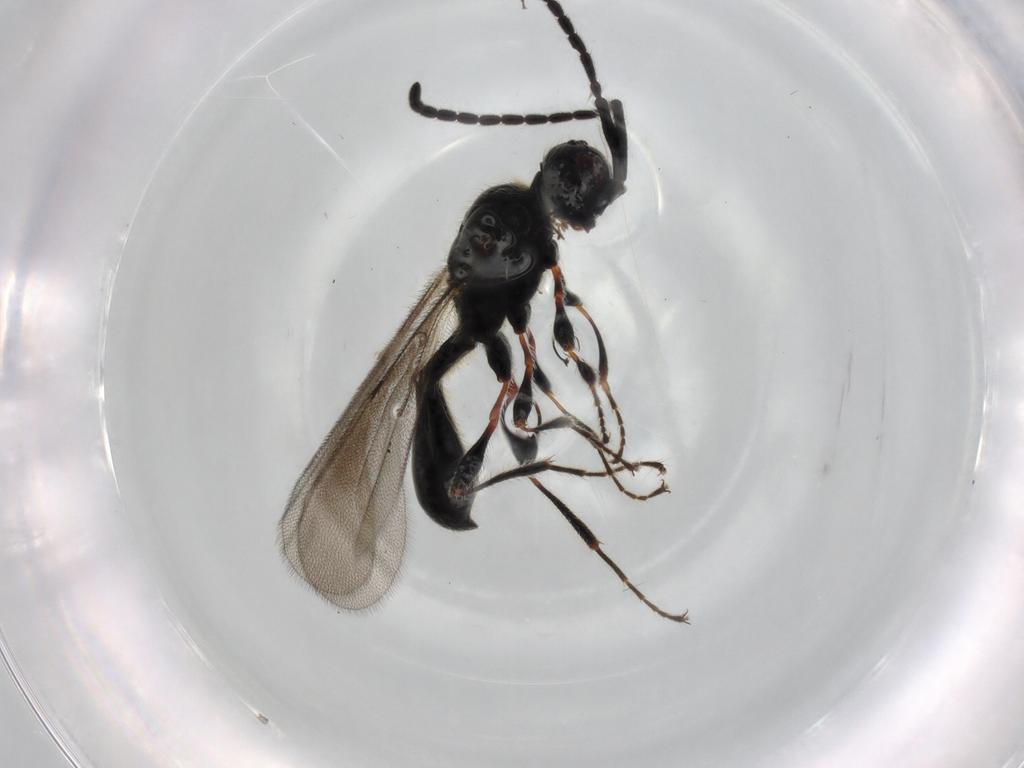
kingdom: Animalia
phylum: Arthropoda
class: Insecta
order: Hymenoptera
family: Diapriidae
